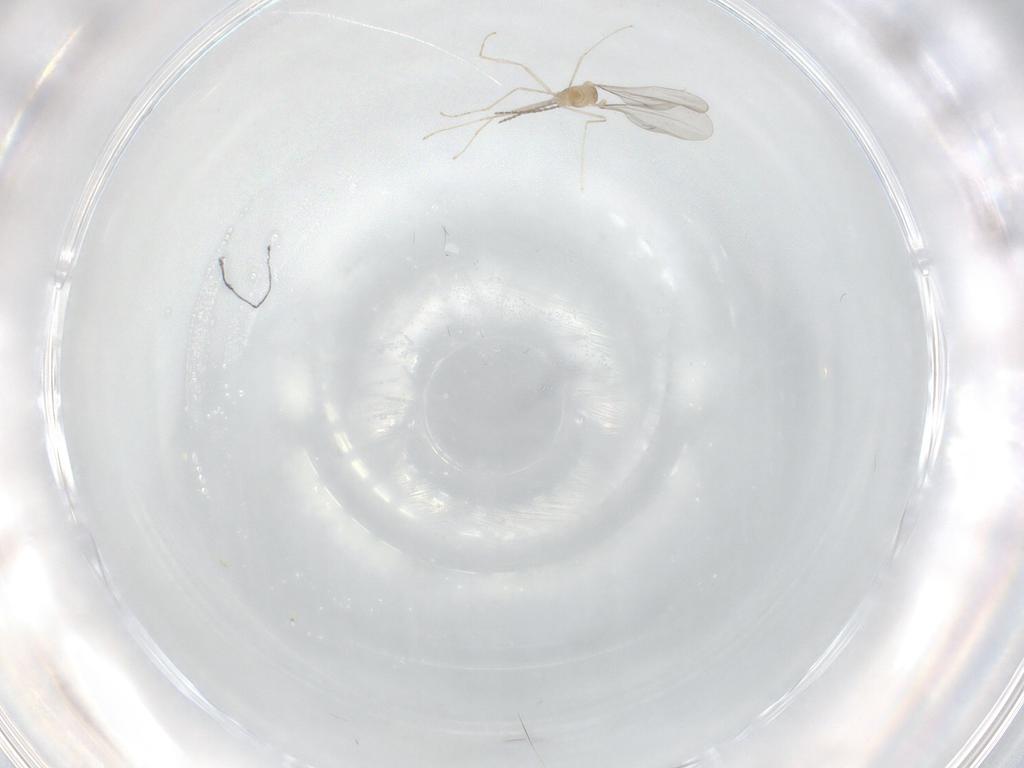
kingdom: Animalia
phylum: Arthropoda
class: Insecta
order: Diptera
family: Cecidomyiidae
